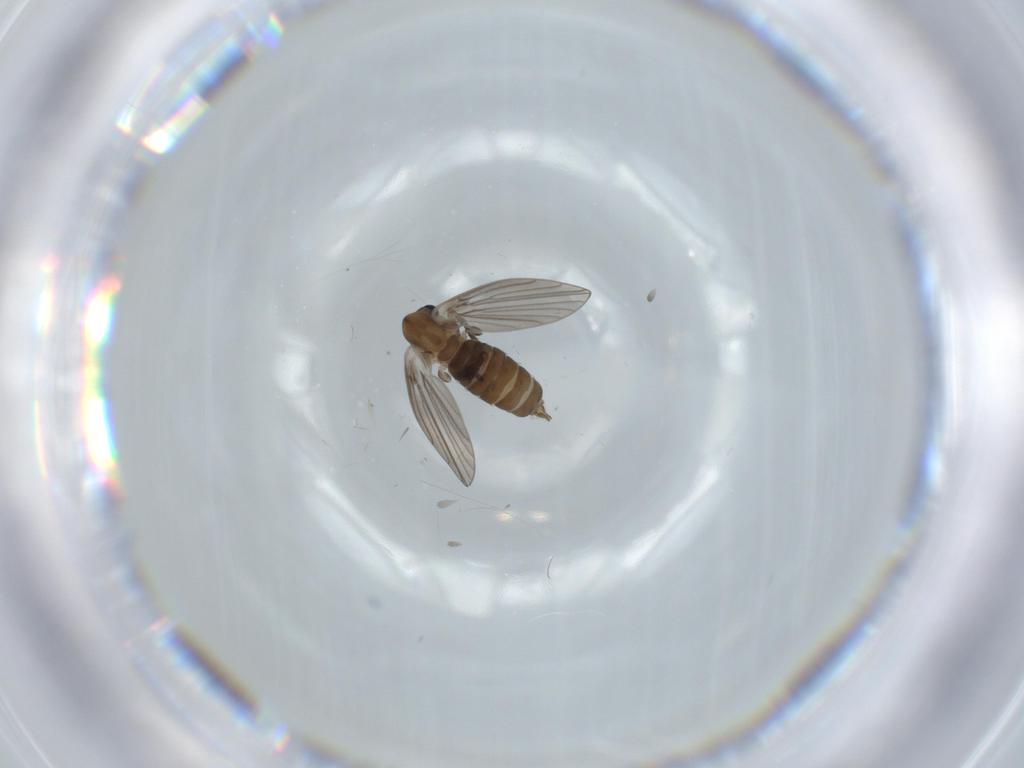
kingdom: Animalia
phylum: Arthropoda
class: Insecta
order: Diptera
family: Psychodidae
